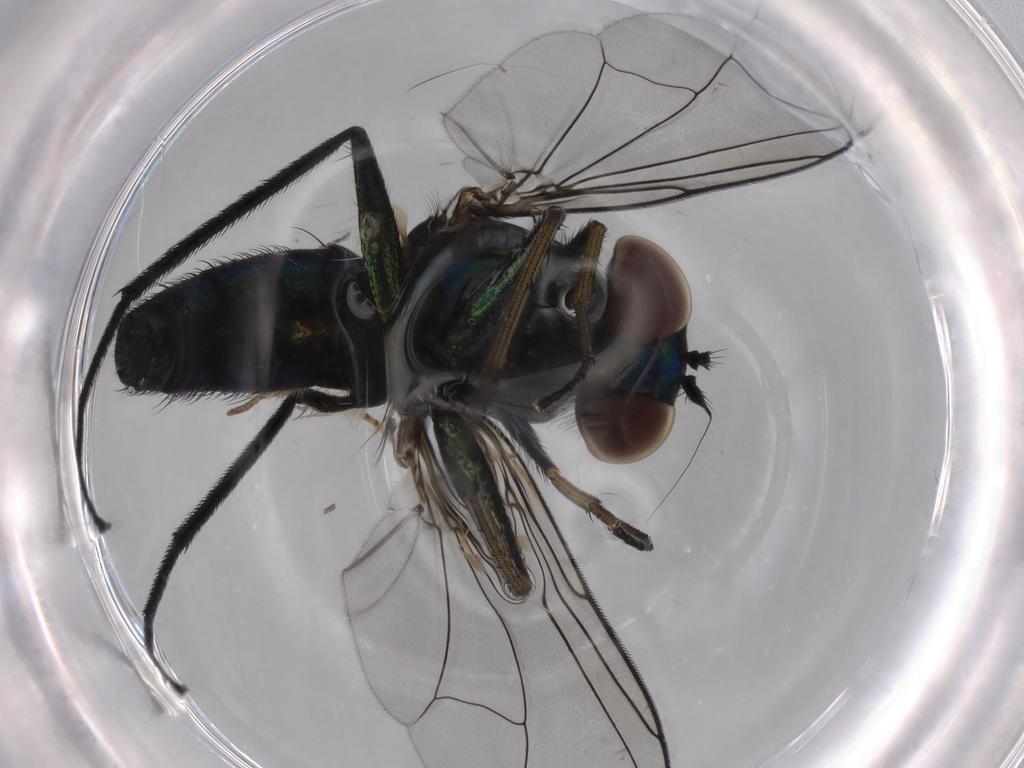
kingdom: Animalia
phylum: Arthropoda
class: Insecta
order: Diptera
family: Dolichopodidae
